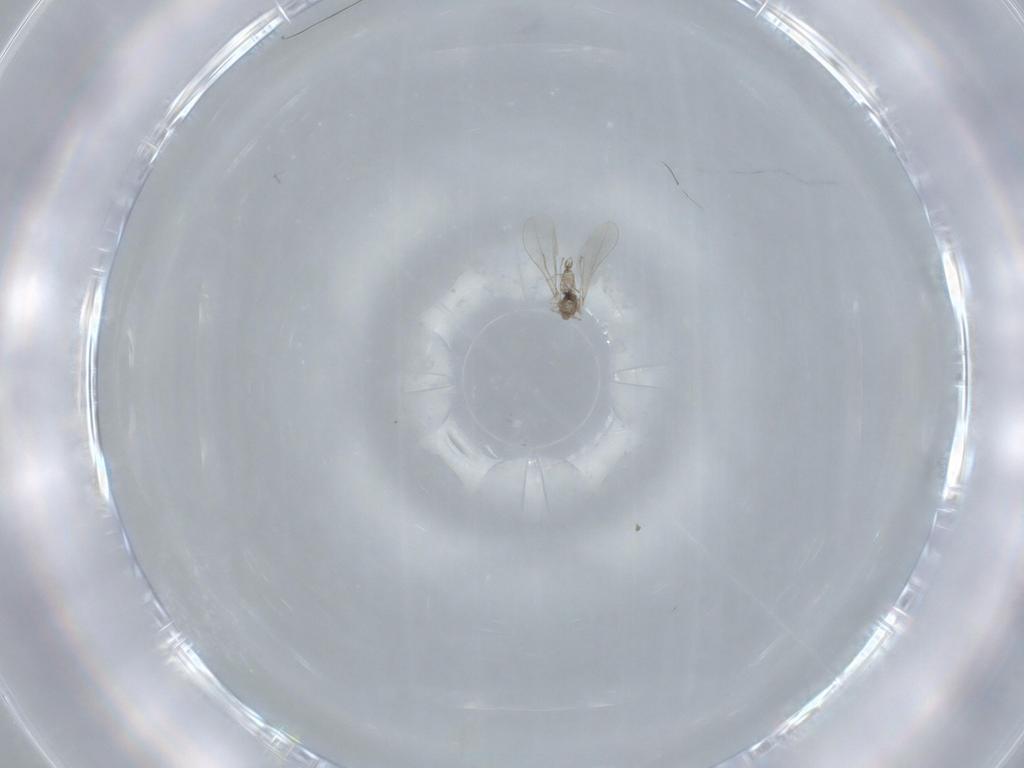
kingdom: Animalia
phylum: Arthropoda
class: Insecta
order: Diptera
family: Cecidomyiidae
